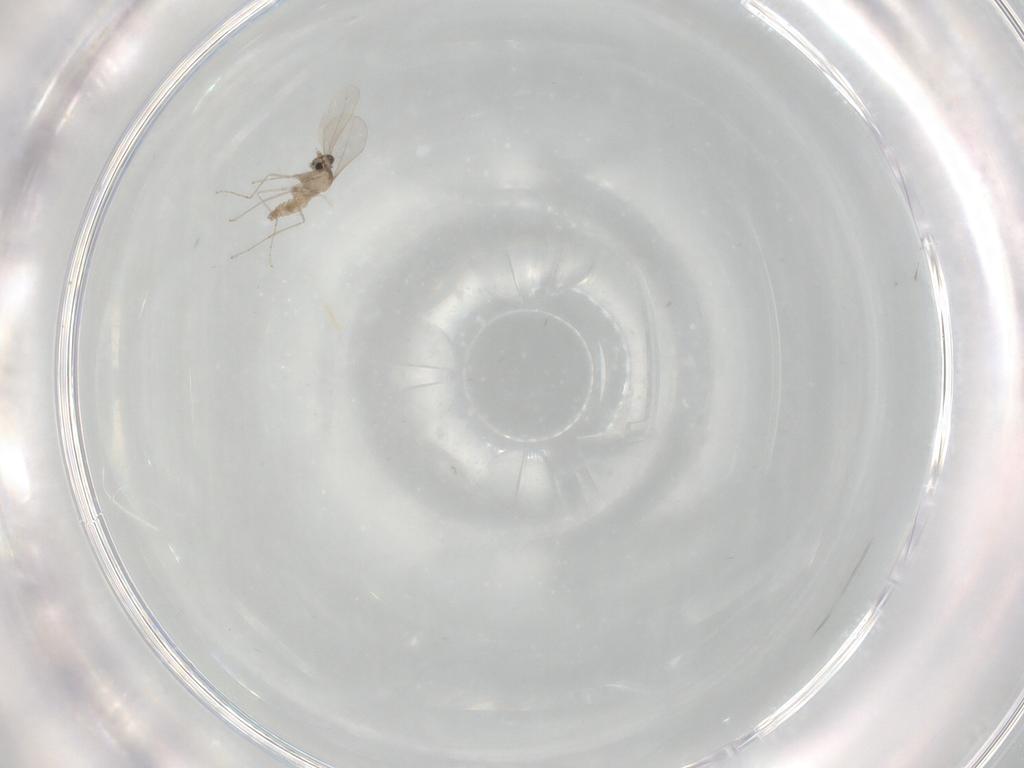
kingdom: Animalia
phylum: Arthropoda
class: Insecta
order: Diptera
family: Cecidomyiidae
